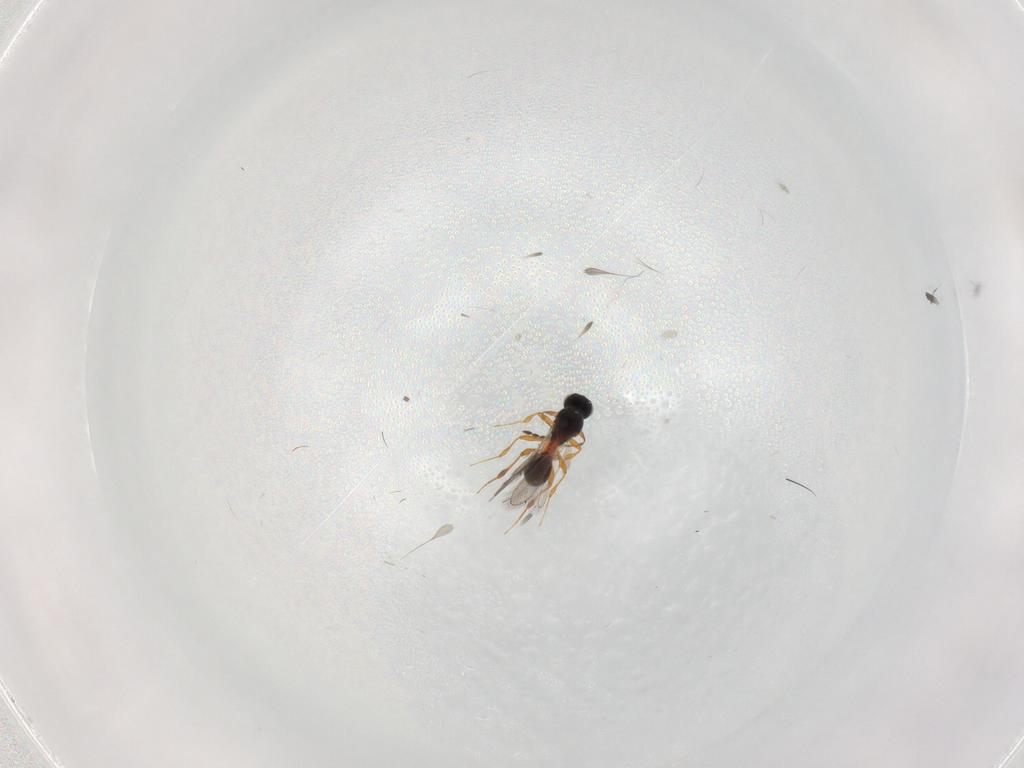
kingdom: Animalia
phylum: Arthropoda
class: Insecta
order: Hymenoptera
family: Platygastridae
